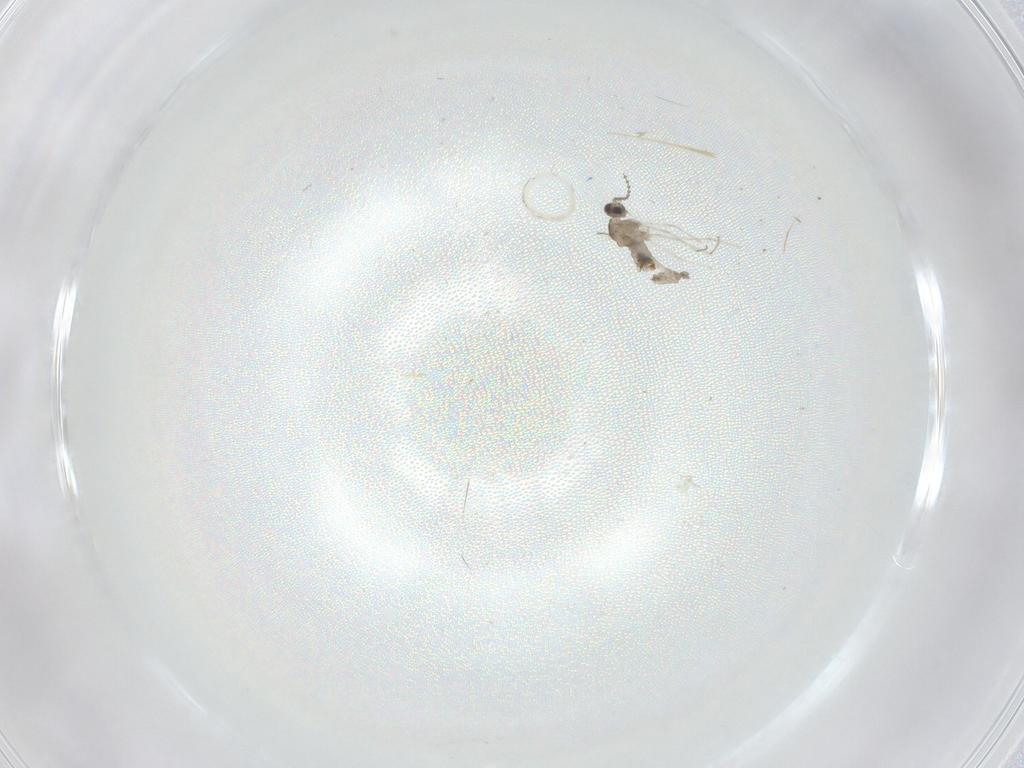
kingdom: Animalia
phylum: Arthropoda
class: Insecta
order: Diptera
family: Cecidomyiidae
